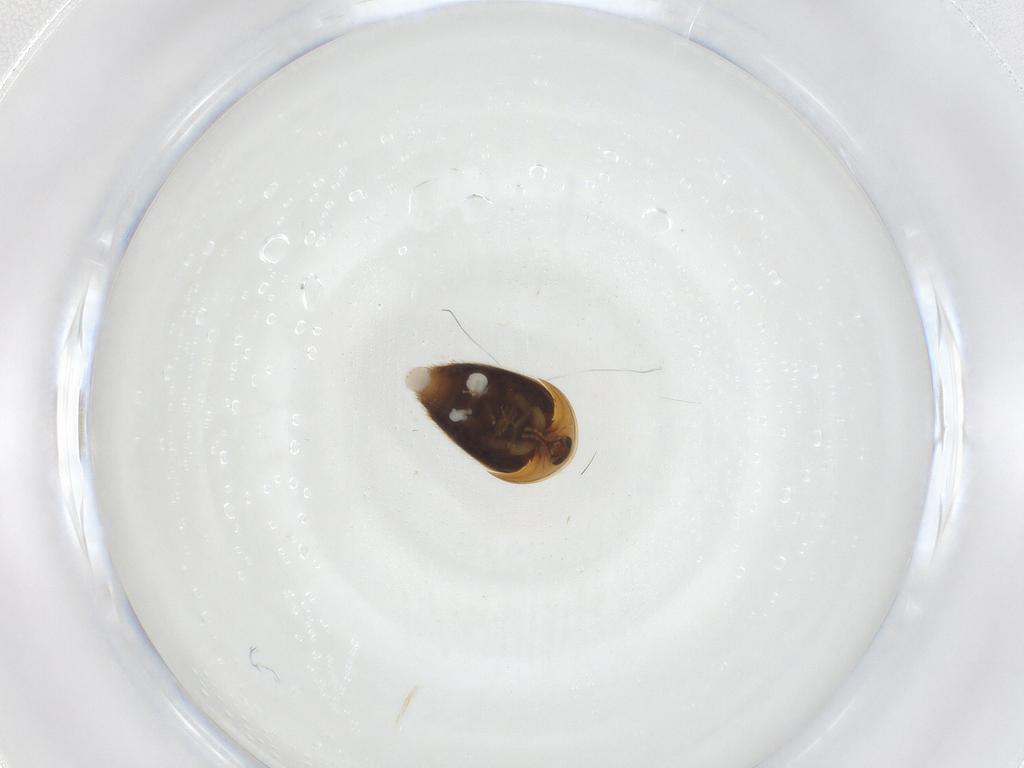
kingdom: Animalia
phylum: Arthropoda
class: Insecta
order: Coleoptera
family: Corylophidae
